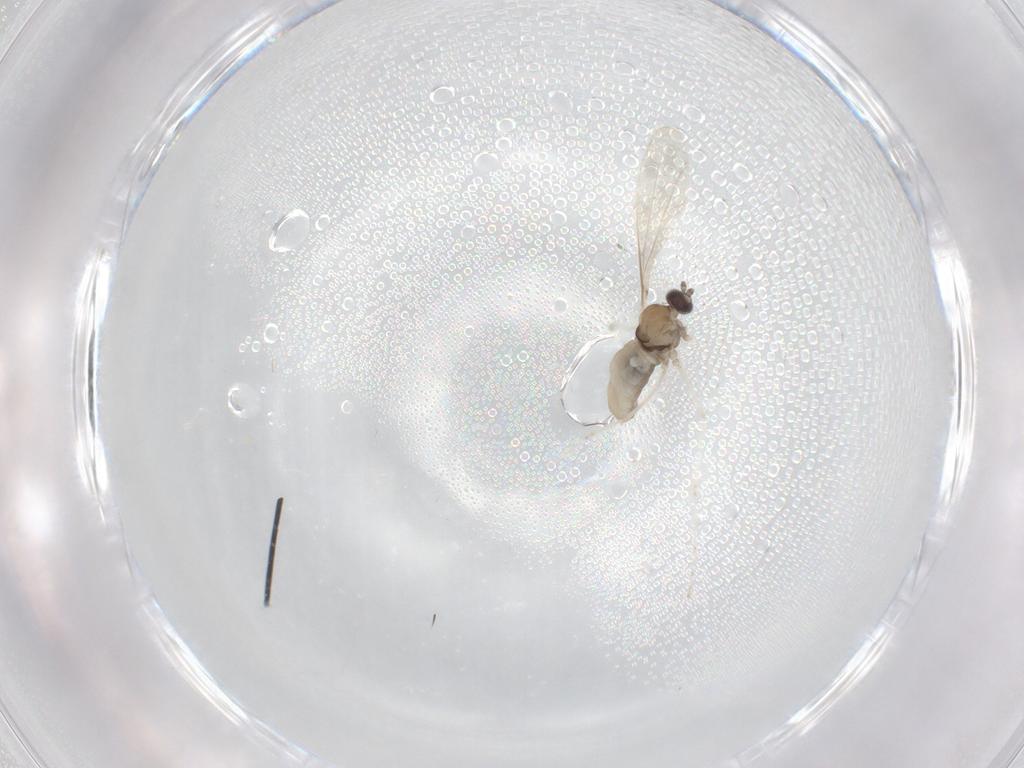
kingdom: Animalia
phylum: Arthropoda
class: Insecta
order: Diptera
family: Cecidomyiidae
